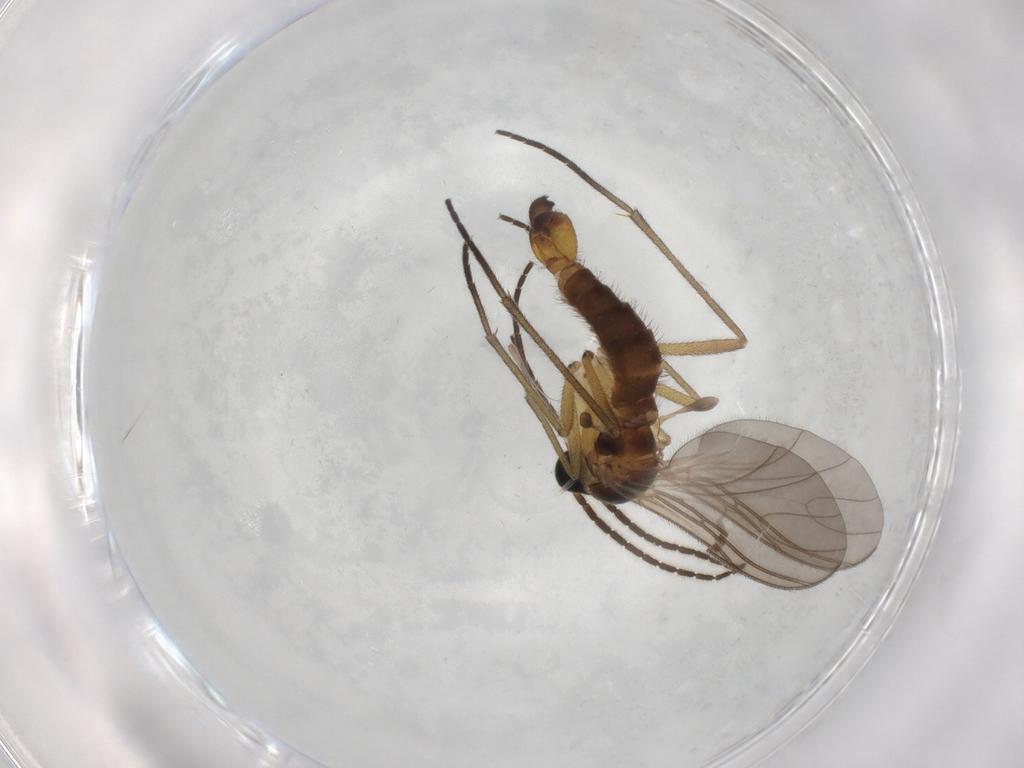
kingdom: Animalia
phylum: Arthropoda
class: Insecta
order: Diptera
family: Sciaridae
